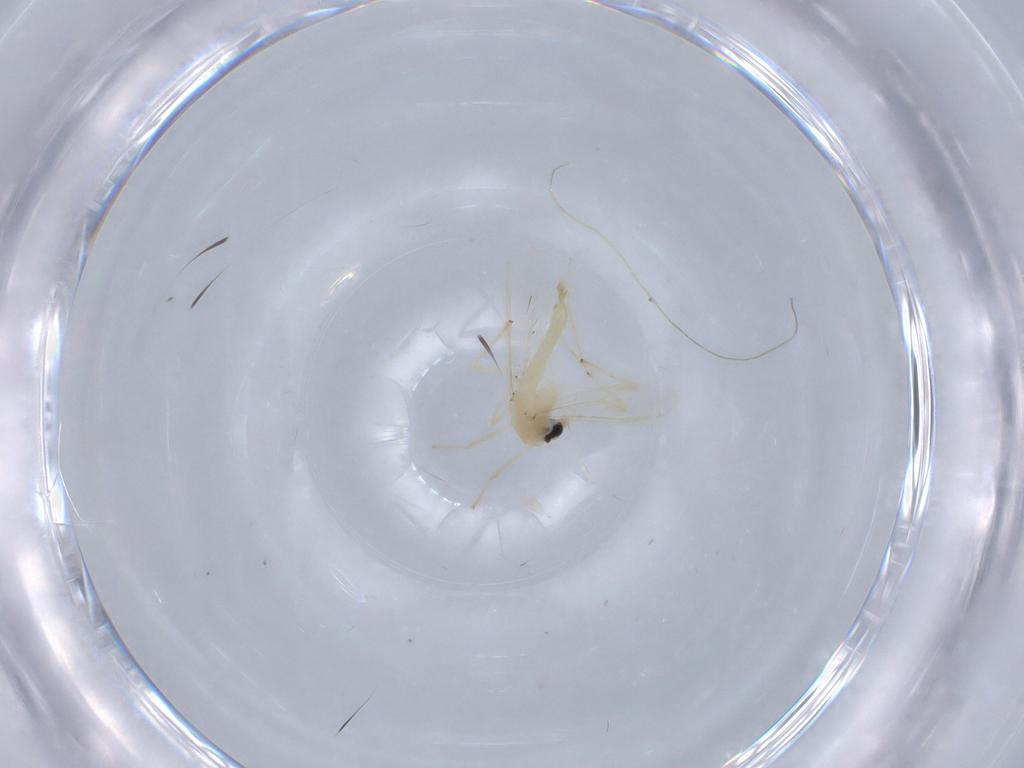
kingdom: Animalia
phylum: Arthropoda
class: Insecta
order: Diptera
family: Chironomidae
